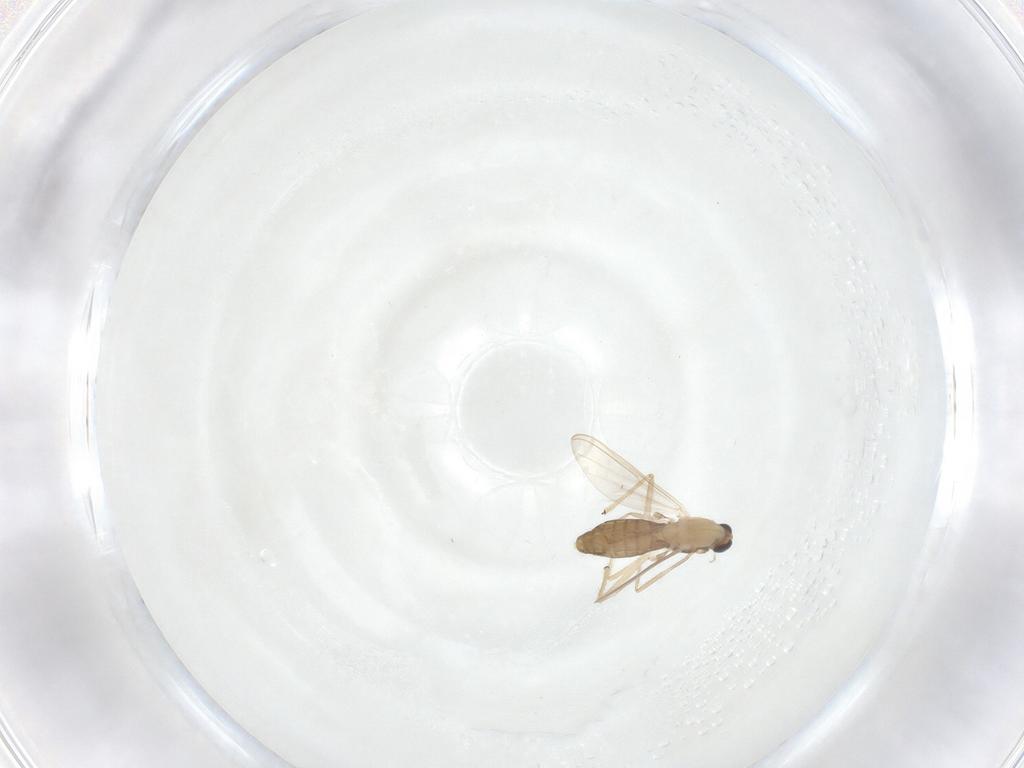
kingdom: Animalia
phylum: Arthropoda
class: Insecta
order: Diptera
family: Chironomidae
